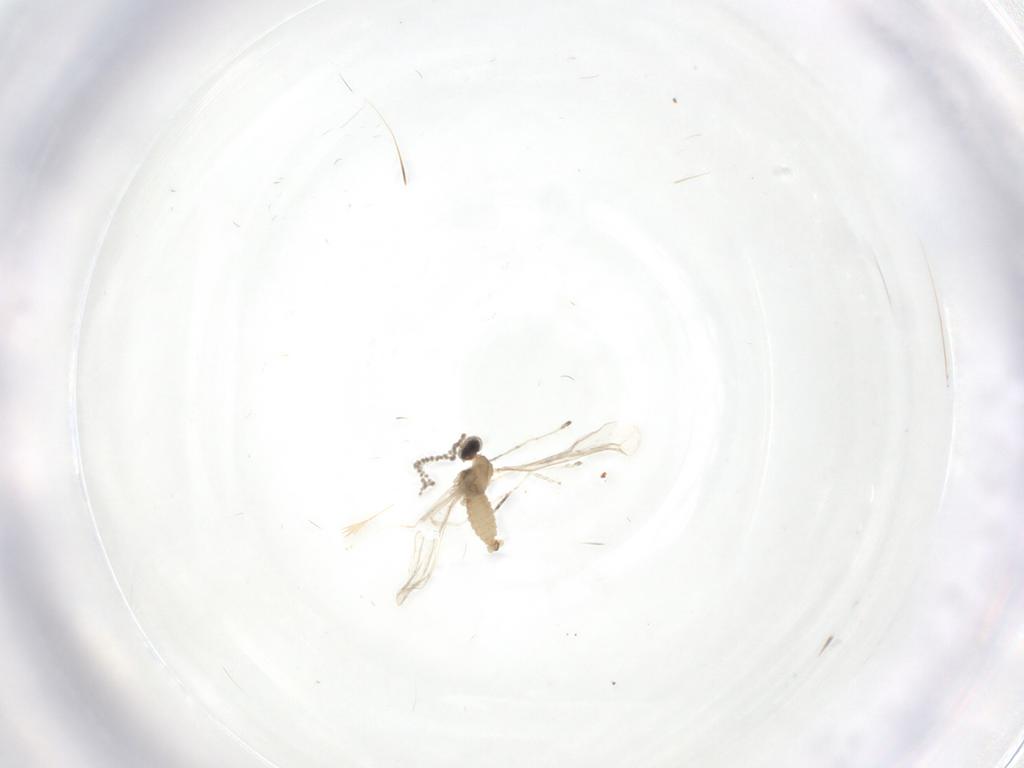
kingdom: Animalia
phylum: Arthropoda
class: Insecta
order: Diptera
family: Cecidomyiidae
